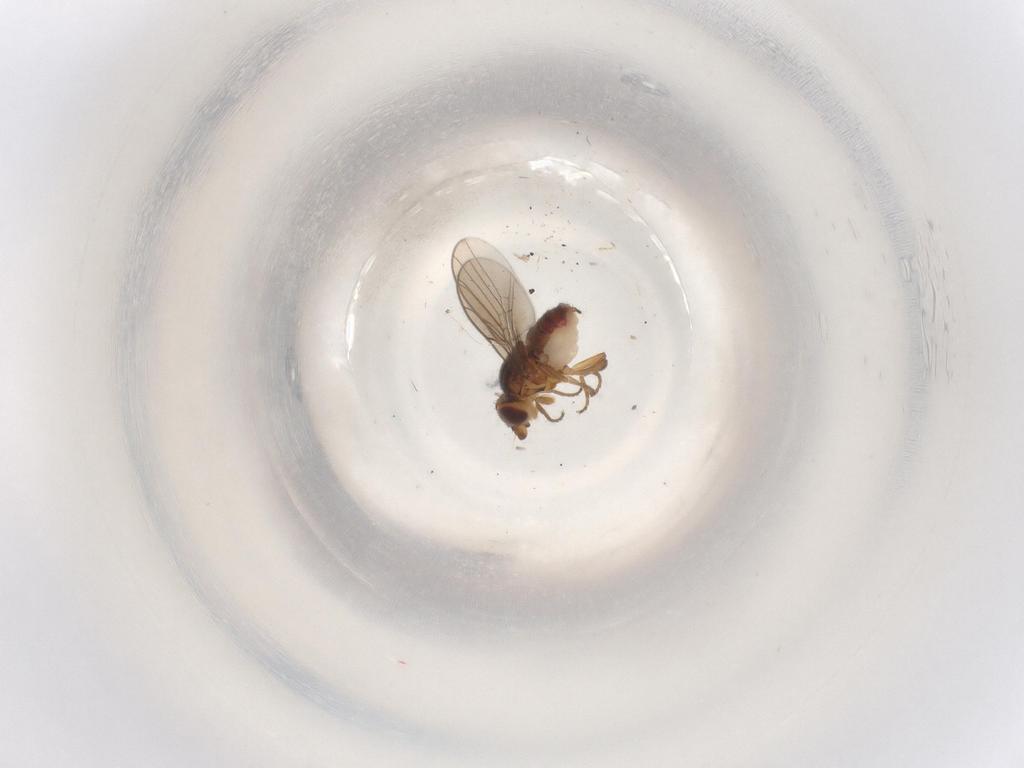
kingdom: Animalia
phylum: Arthropoda
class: Insecta
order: Diptera
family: Chloropidae
